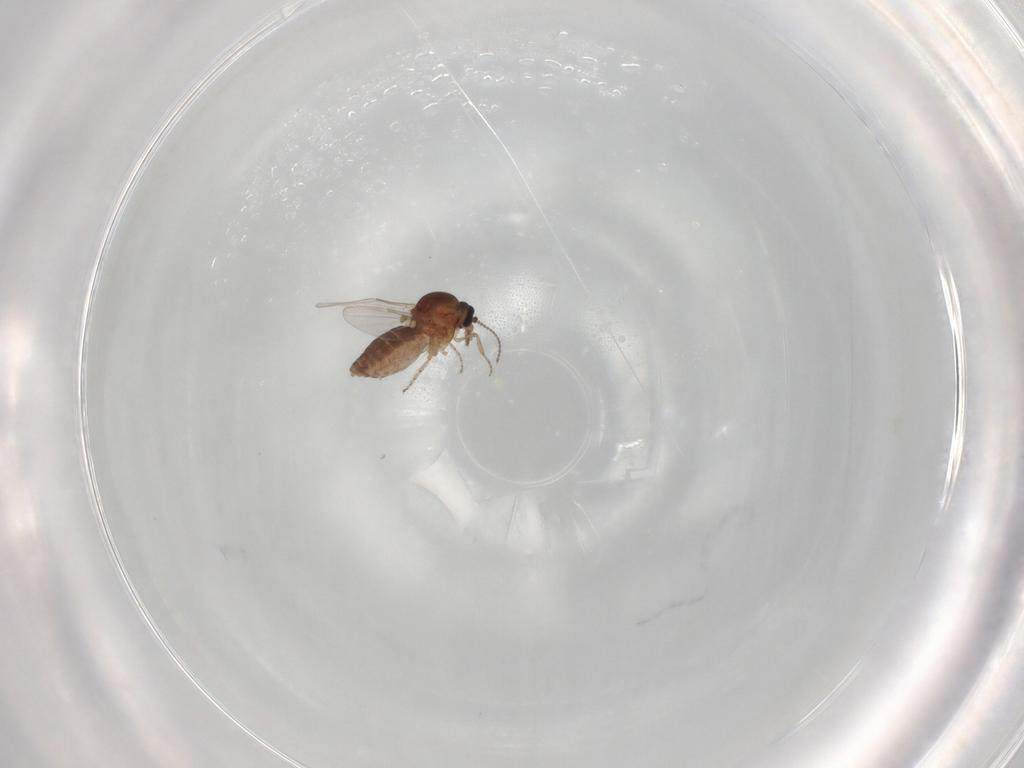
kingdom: Animalia
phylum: Arthropoda
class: Insecta
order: Diptera
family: Ceratopogonidae
